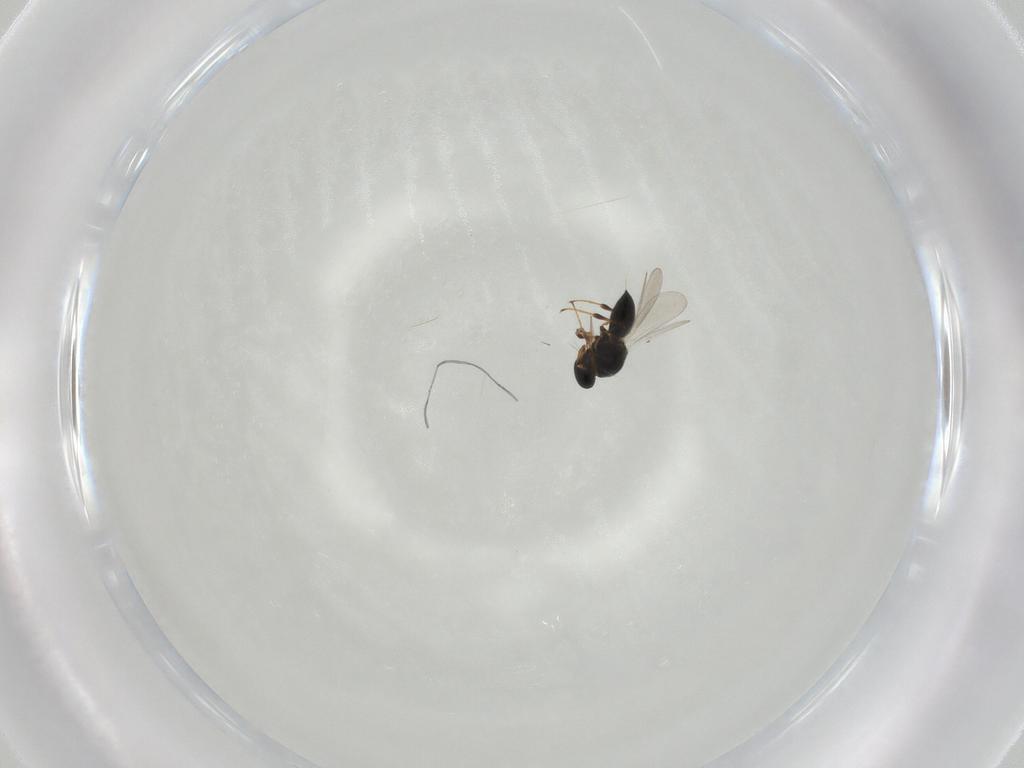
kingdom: Animalia
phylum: Arthropoda
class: Insecta
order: Hymenoptera
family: Platygastridae
